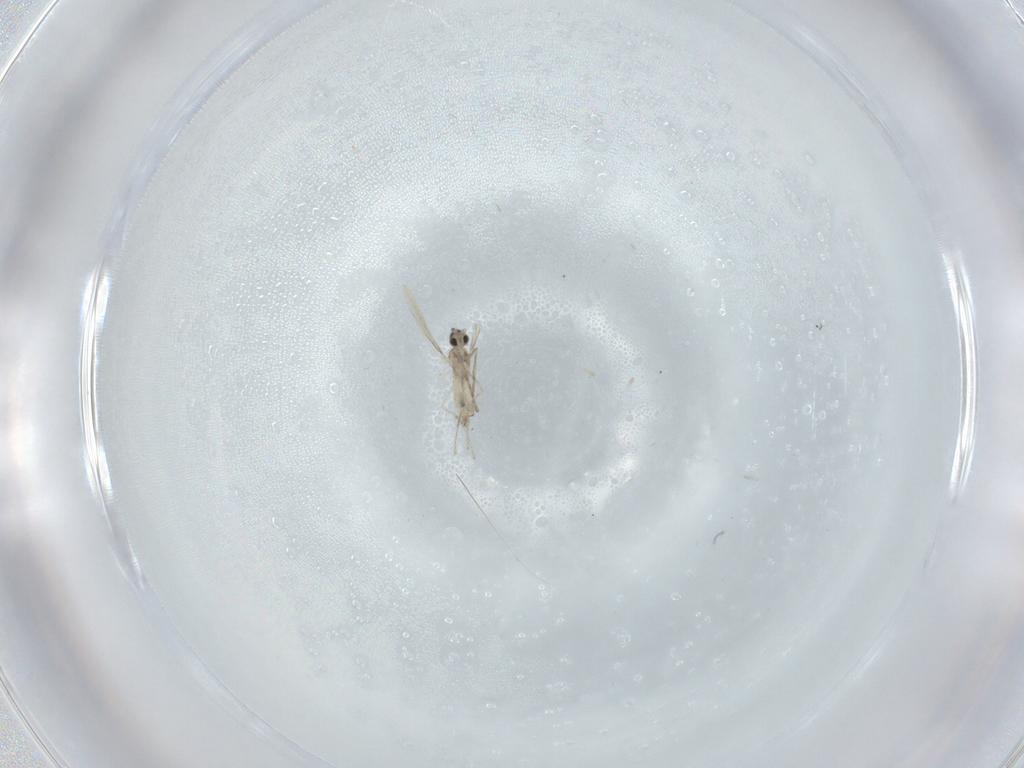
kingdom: Animalia
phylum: Arthropoda
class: Insecta
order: Diptera
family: Cecidomyiidae
